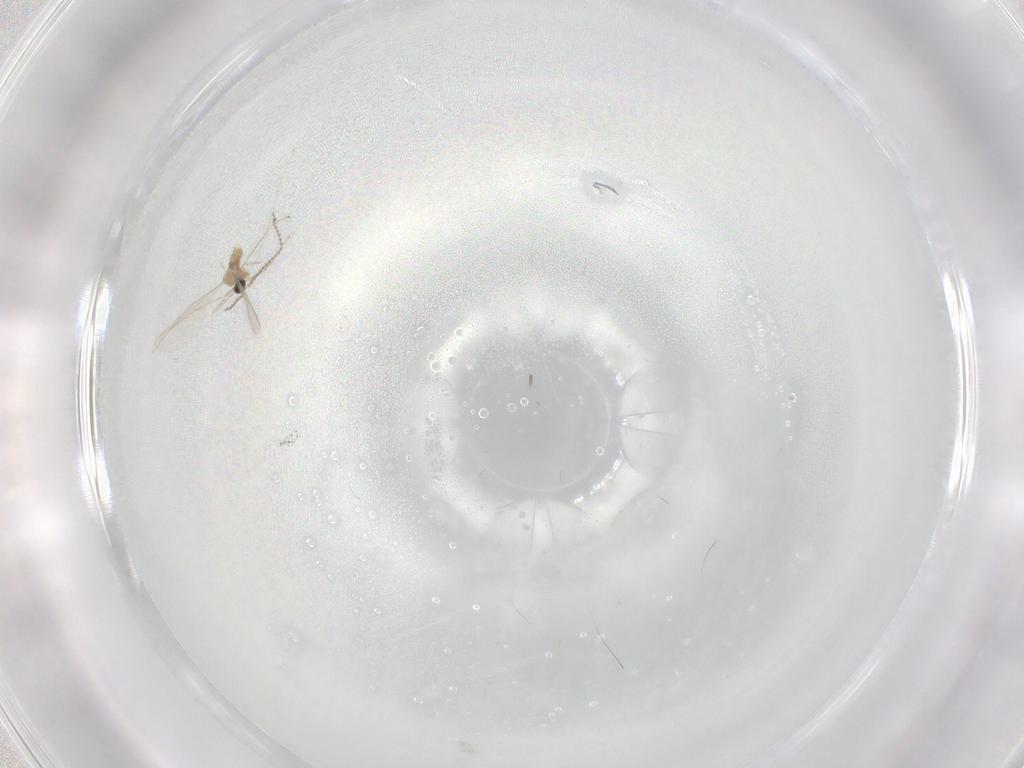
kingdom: Animalia
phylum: Arthropoda
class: Insecta
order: Diptera
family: Cecidomyiidae
